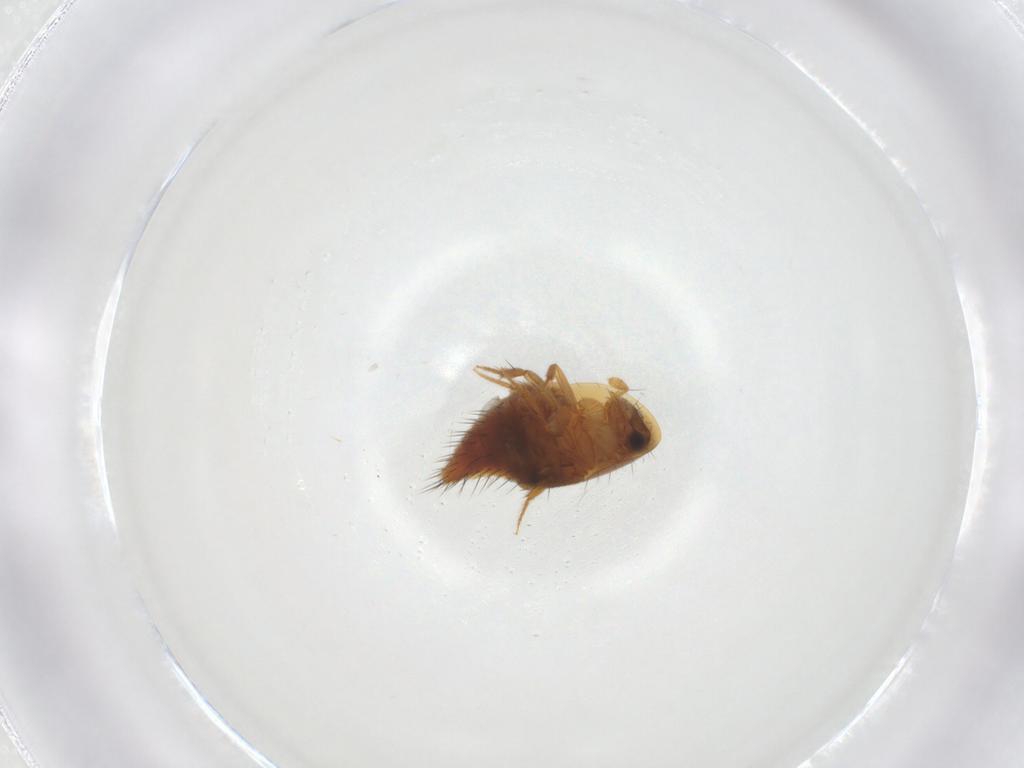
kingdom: Animalia
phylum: Arthropoda
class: Insecta
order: Coleoptera
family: Staphylinidae
